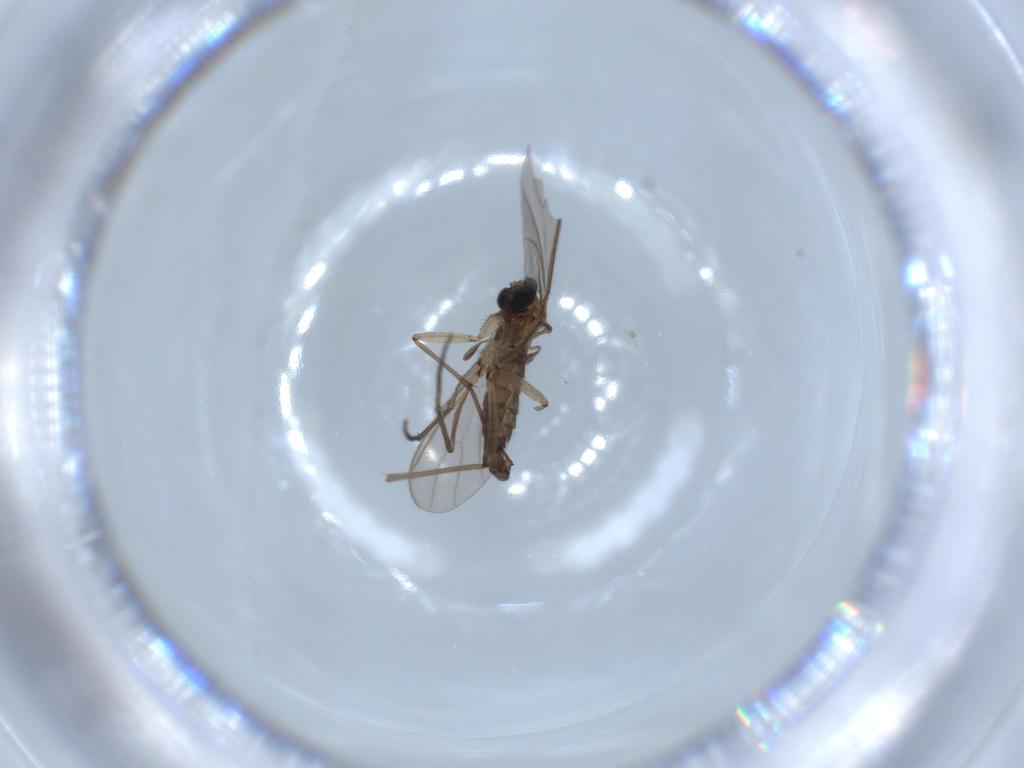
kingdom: Animalia
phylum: Arthropoda
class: Insecta
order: Diptera
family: Sciaridae
